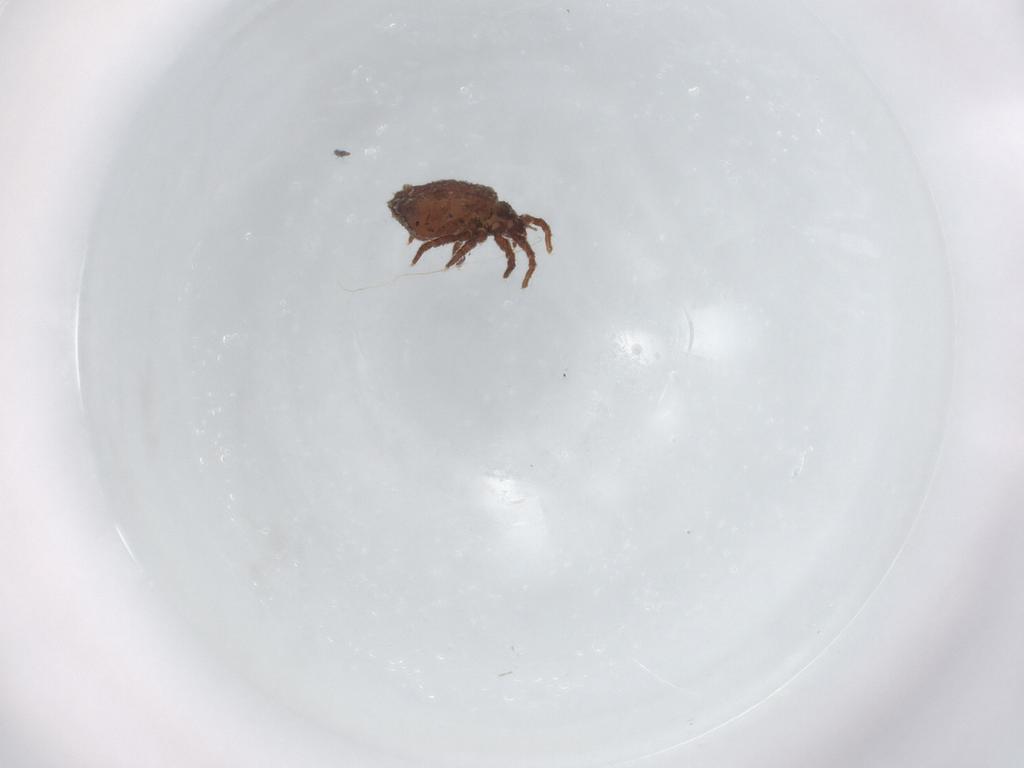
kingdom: Animalia
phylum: Arthropoda
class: Arachnida
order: Sarcoptiformes
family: Crotoniidae
